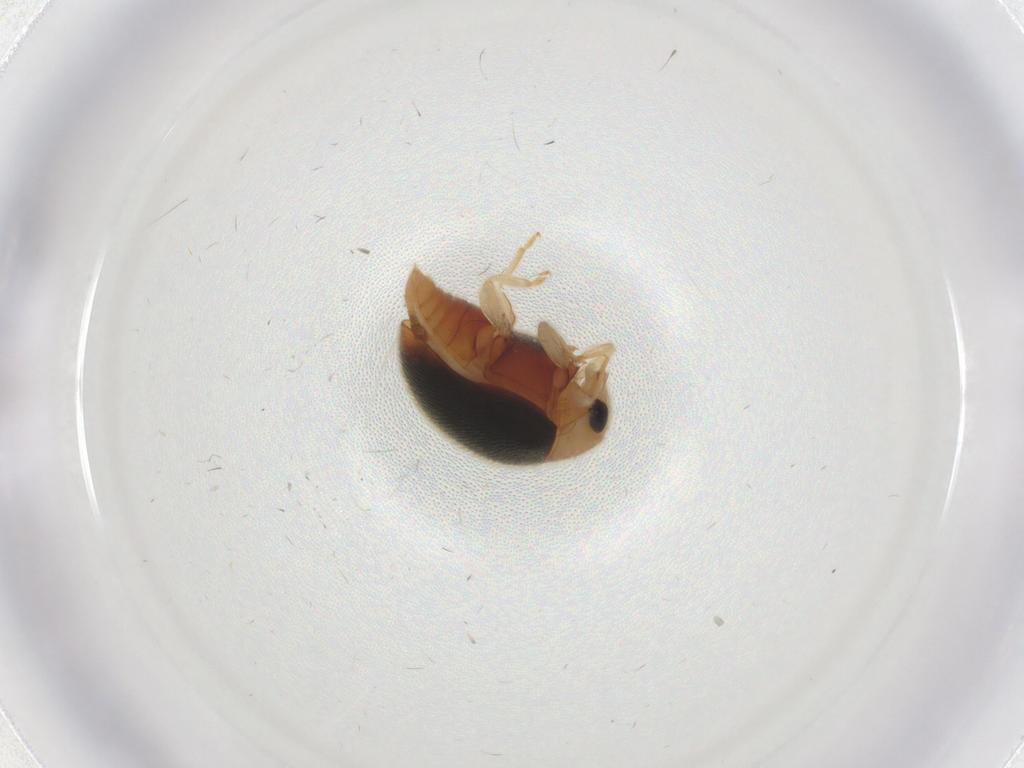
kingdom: Animalia
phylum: Arthropoda
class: Insecta
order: Coleoptera
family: Coccinellidae
